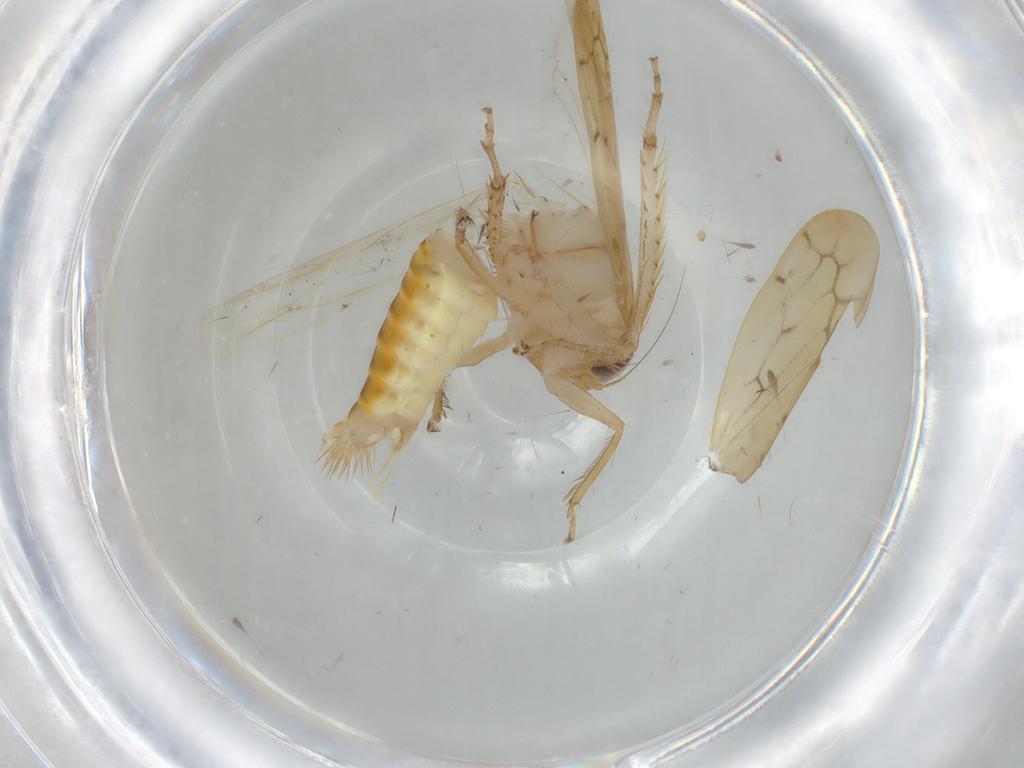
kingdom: Animalia
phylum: Arthropoda
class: Insecta
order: Hemiptera
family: Cicadellidae
